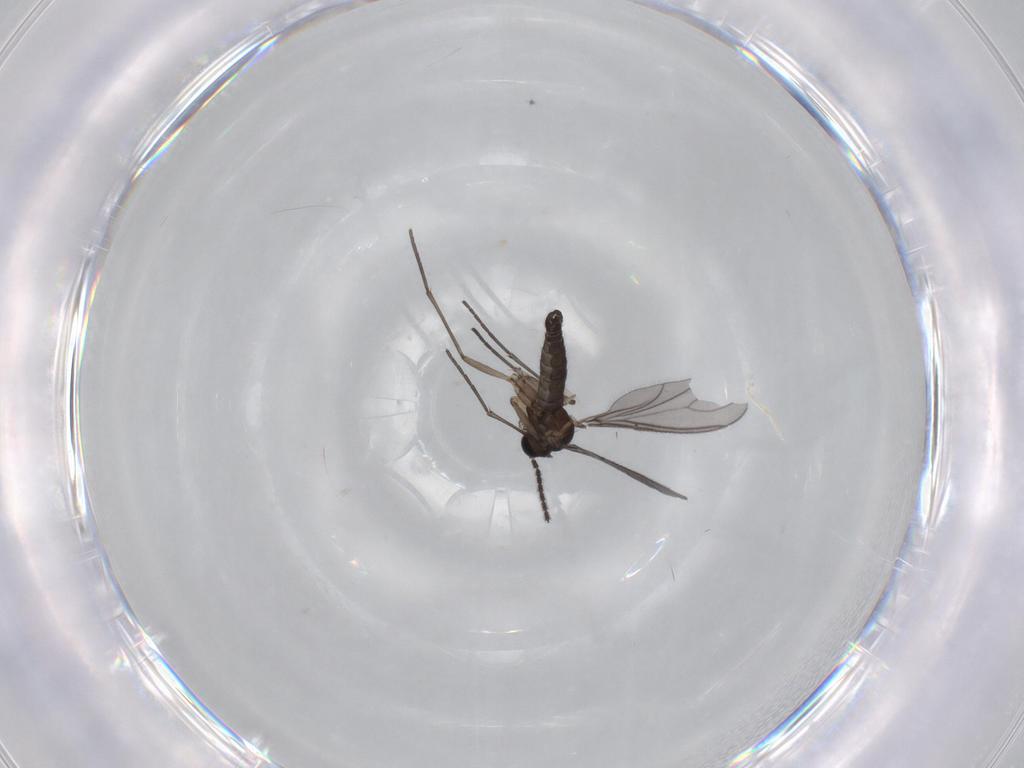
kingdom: Animalia
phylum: Arthropoda
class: Insecta
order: Diptera
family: Sciaridae
